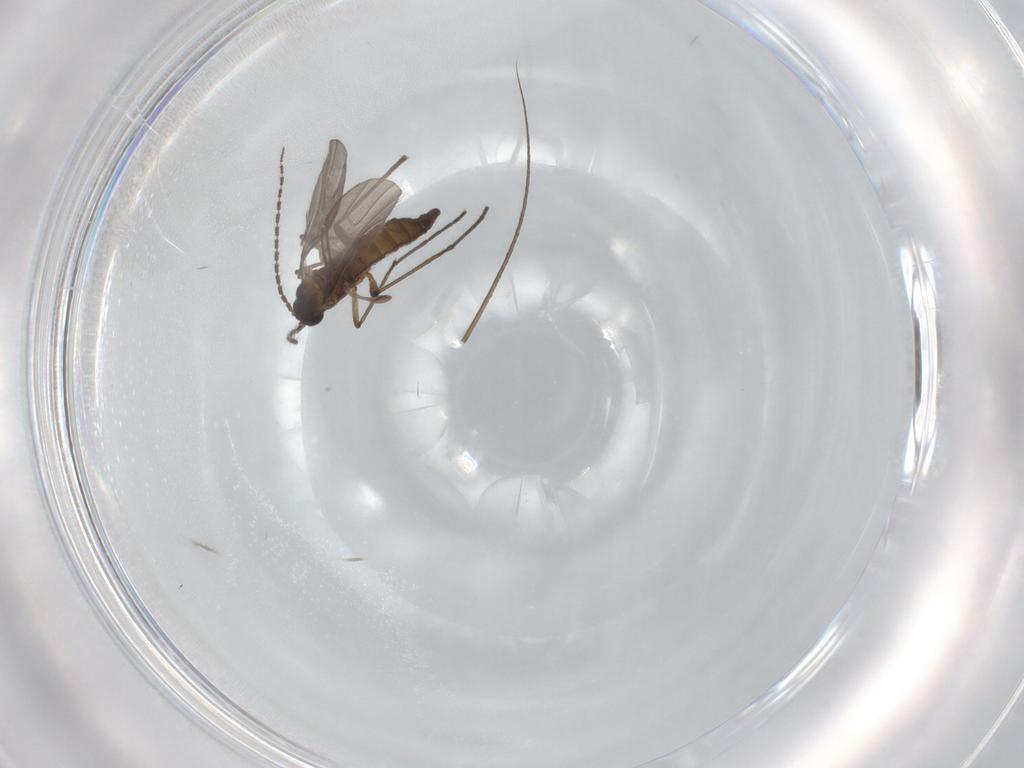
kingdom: Animalia
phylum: Arthropoda
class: Insecta
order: Diptera
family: Sciaridae
